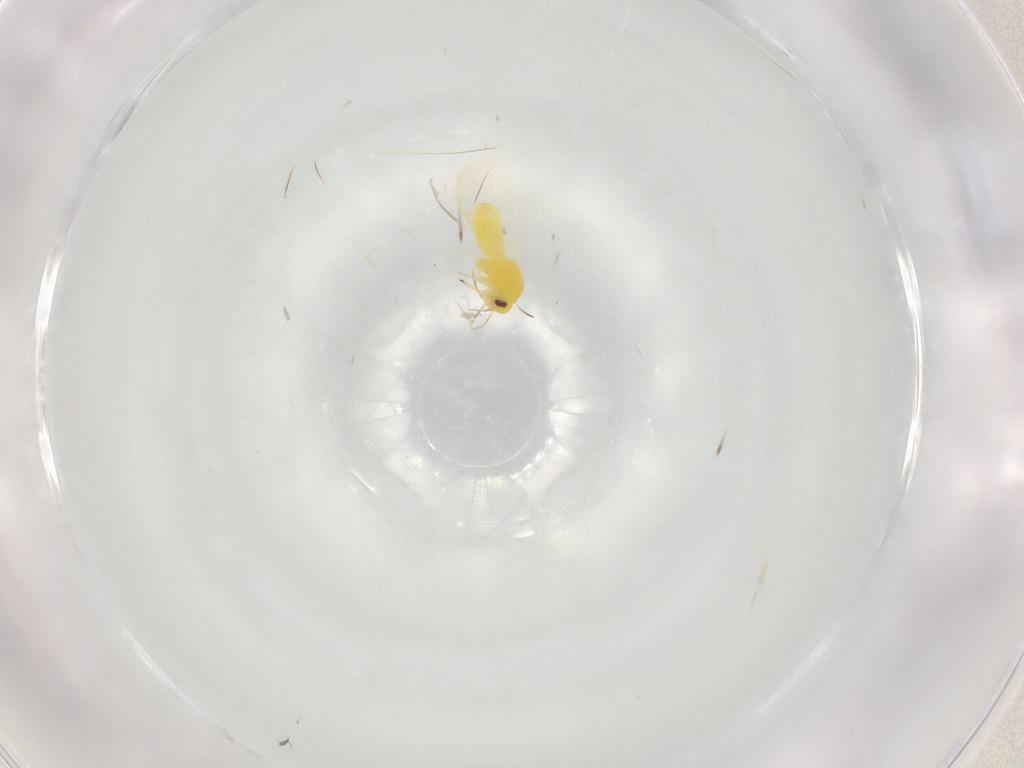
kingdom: Animalia
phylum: Arthropoda
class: Insecta
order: Hemiptera
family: Aleyrodidae
